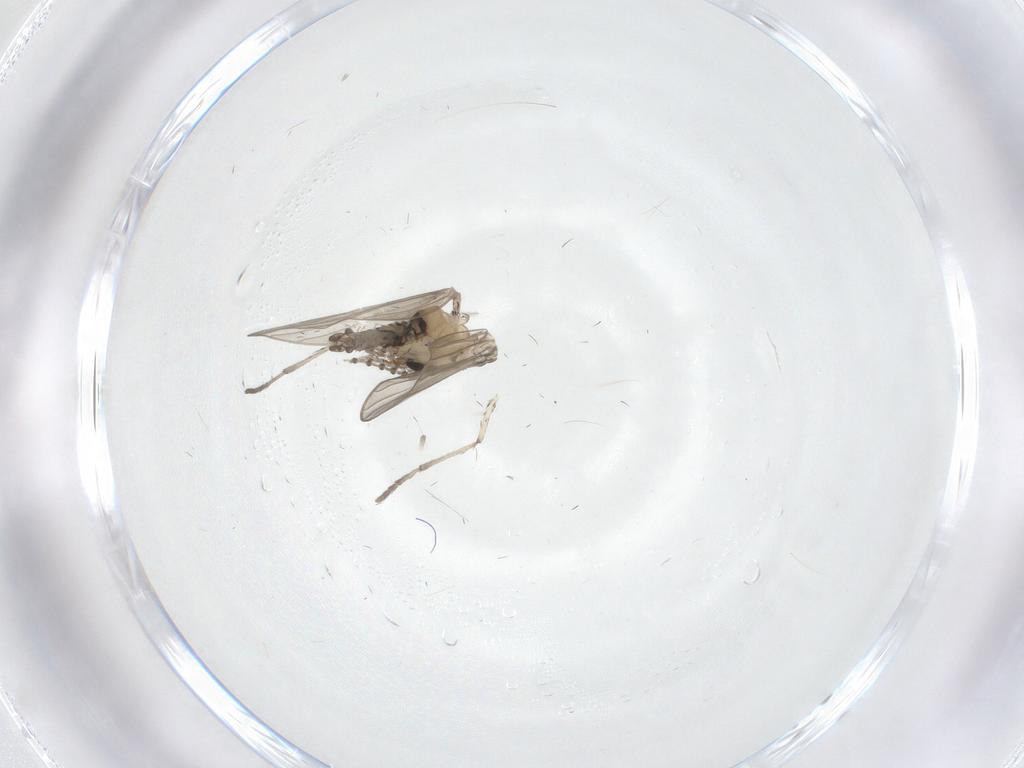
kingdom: Animalia
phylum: Arthropoda
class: Insecta
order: Diptera
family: Psychodidae
